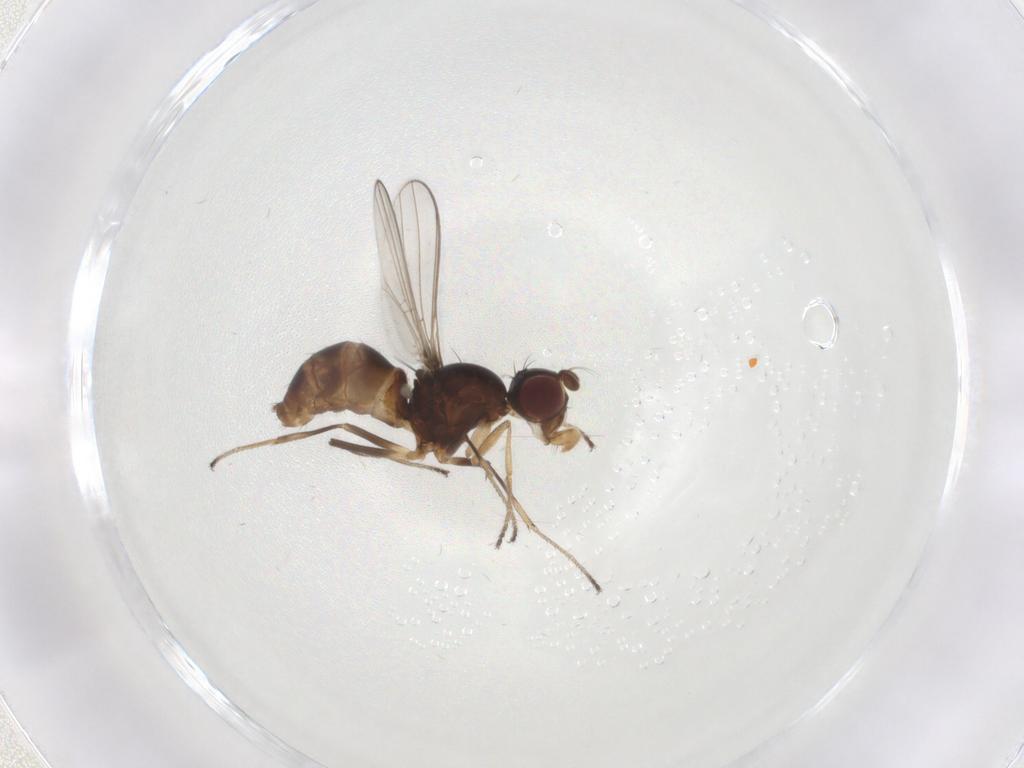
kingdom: Animalia
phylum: Arthropoda
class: Insecta
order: Diptera
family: Sepsidae
